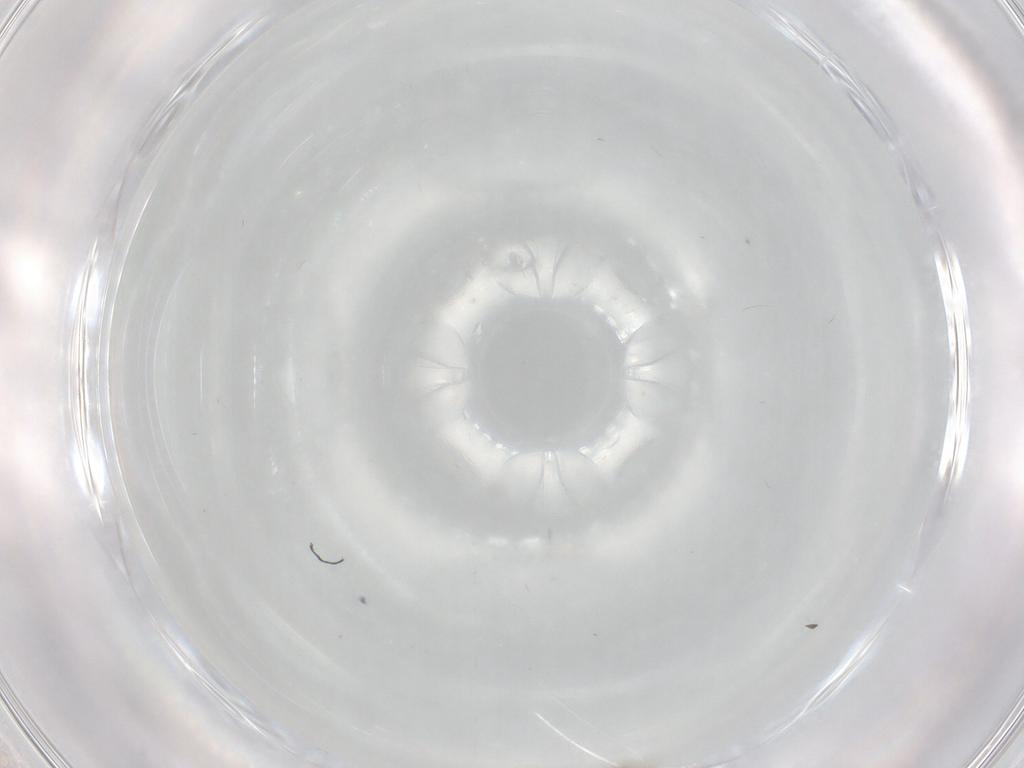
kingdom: Animalia
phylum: Arthropoda
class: Insecta
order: Diptera
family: Cecidomyiidae
